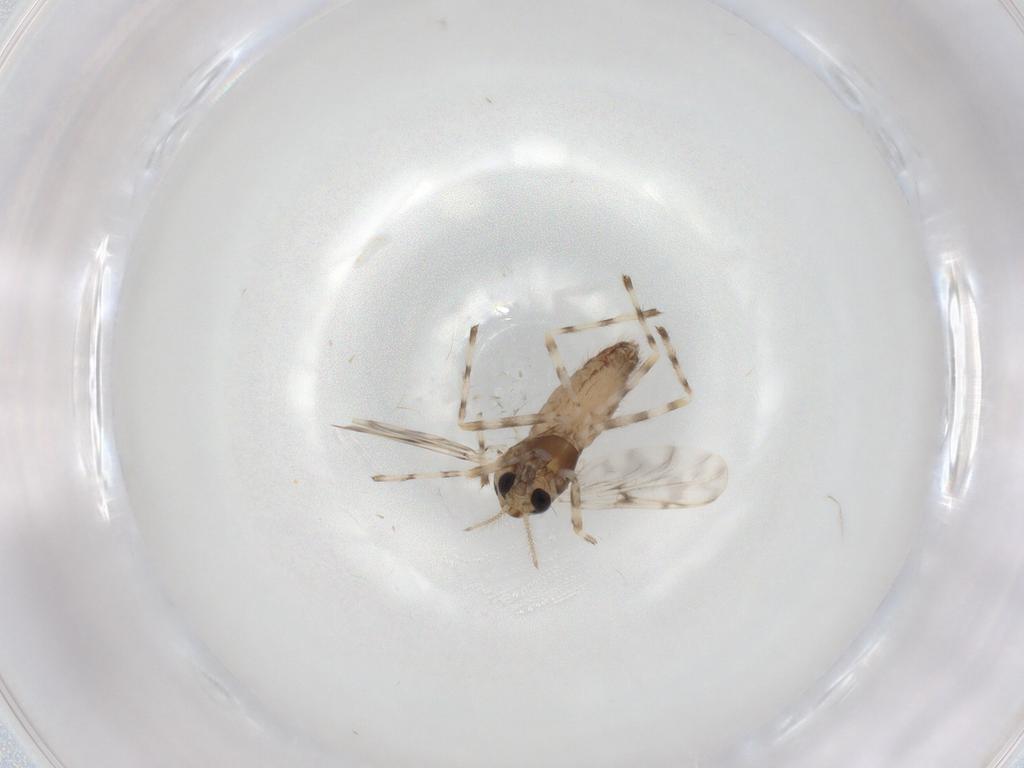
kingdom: Animalia
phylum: Arthropoda
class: Insecta
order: Diptera
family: Chironomidae
